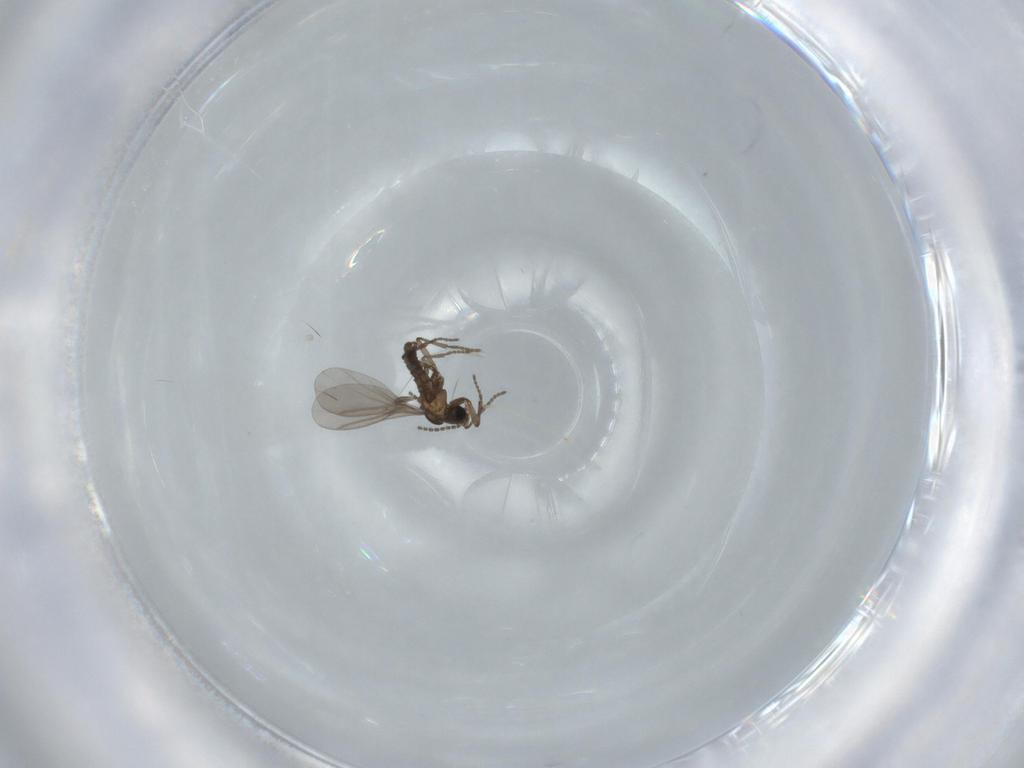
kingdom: Animalia
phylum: Arthropoda
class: Insecta
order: Diptera
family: Cecidomyiidae
